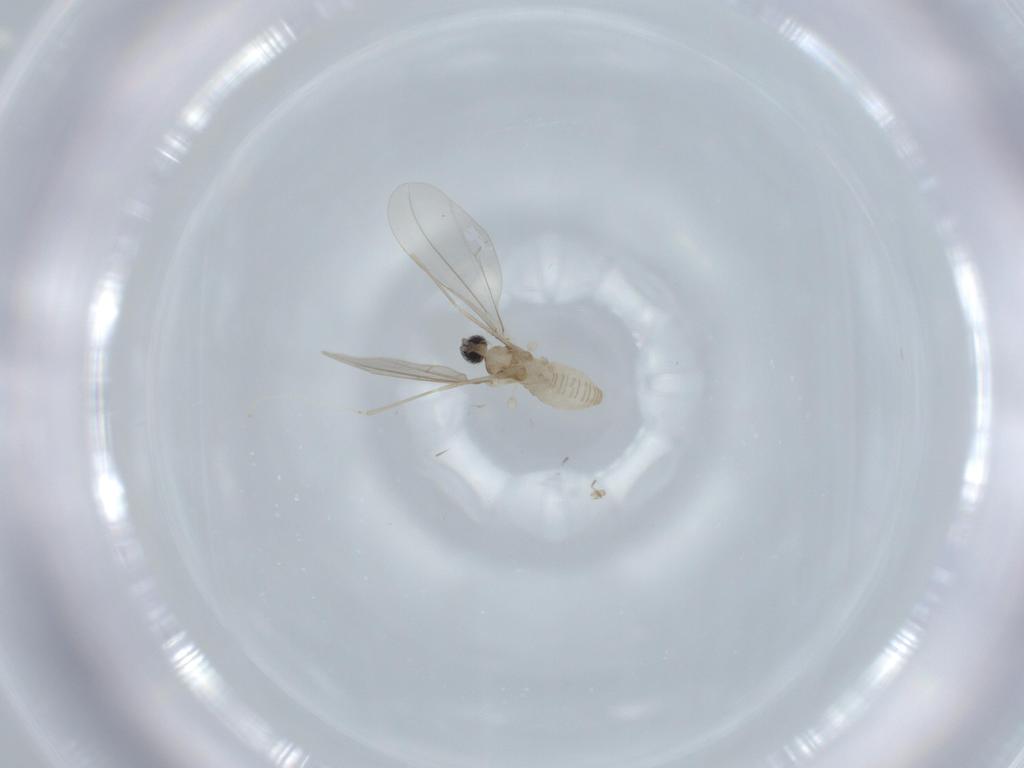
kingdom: Animalia
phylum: Arthropoda
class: Insecta
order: Diptera
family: Cecidomyiidae
